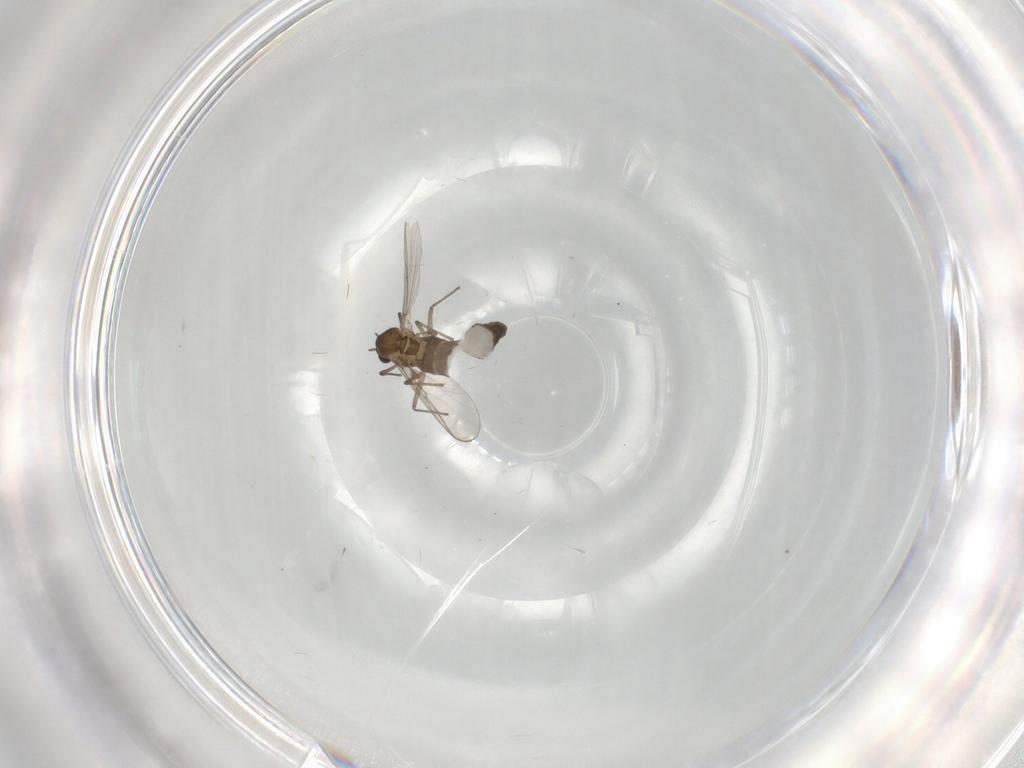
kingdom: Animalia
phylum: Arthropoda
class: Insecta
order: Diptera
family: Chironomidae
